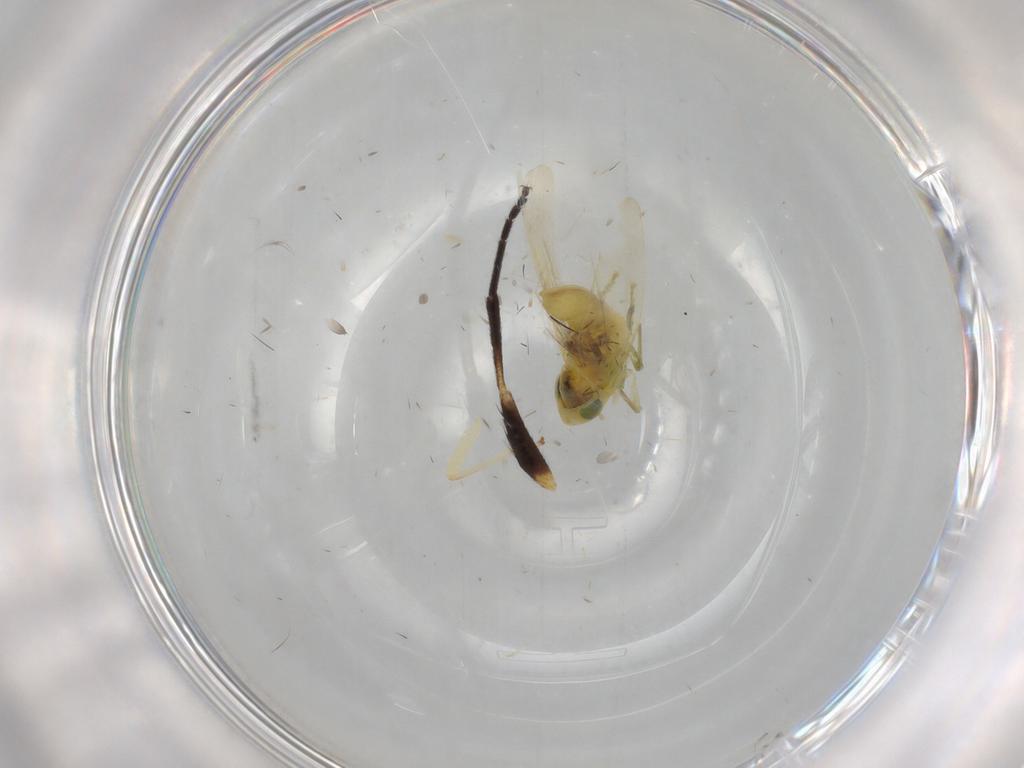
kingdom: Animalia
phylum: Arthropoda
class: Insecta
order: Hemiptera
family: Cicadellidae
